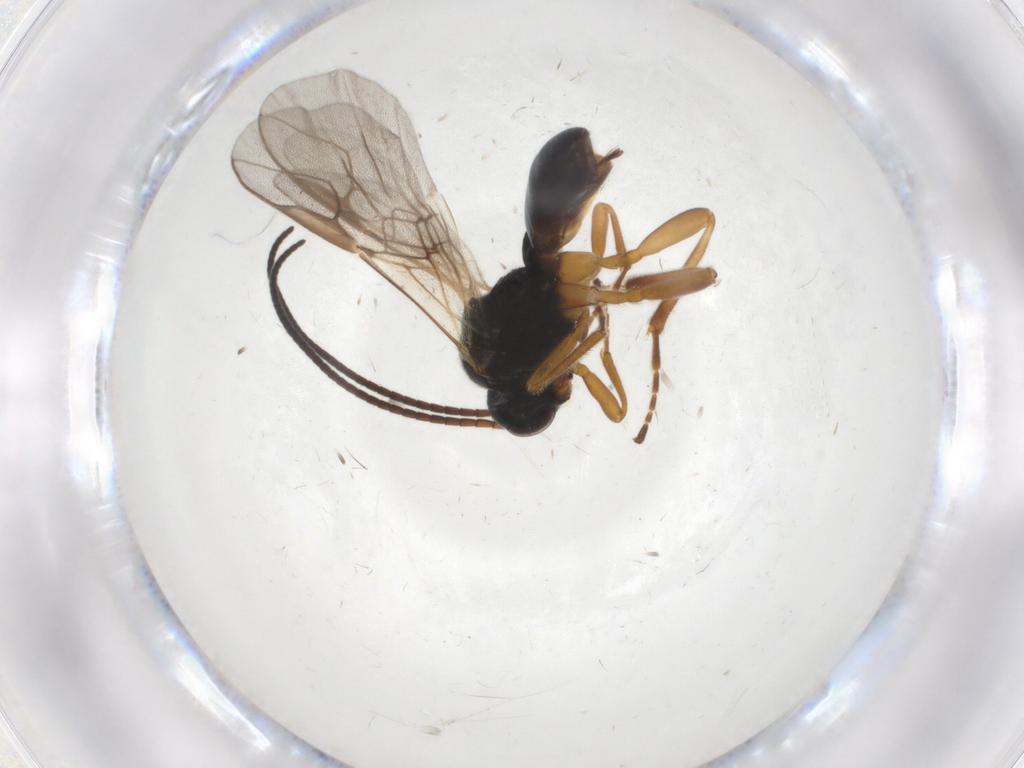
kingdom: Animalia
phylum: Arthropoda
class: Insecta
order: Hymenoptera
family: Braconidae
